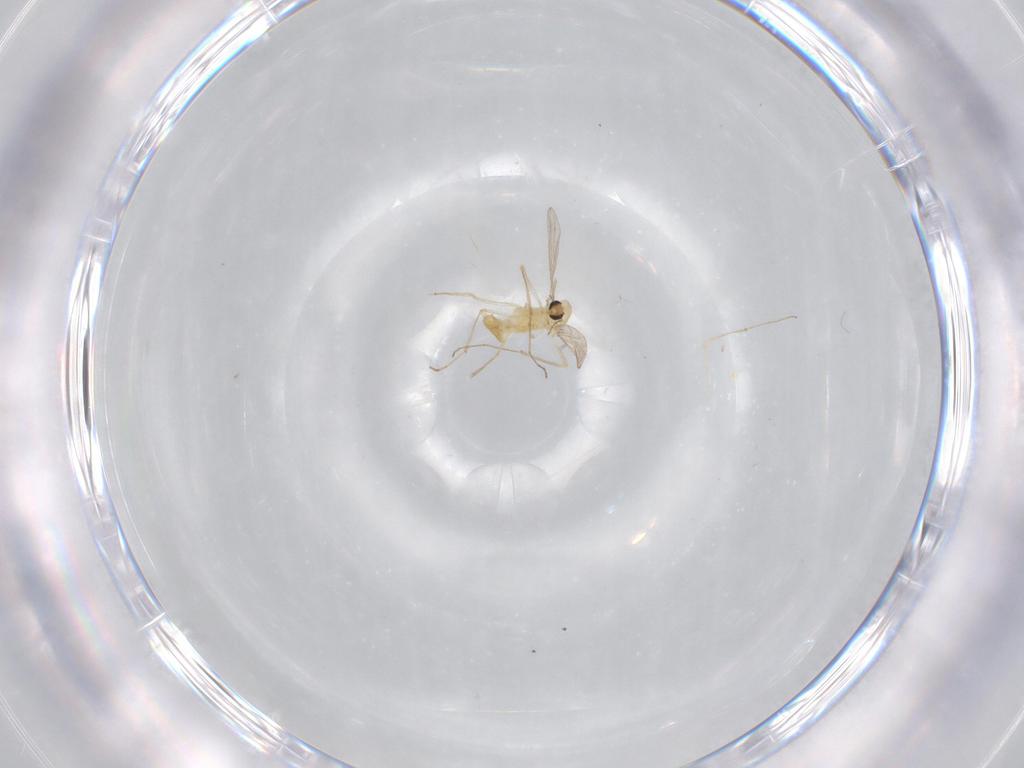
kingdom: Animalia
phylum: Arthropoda
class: Insecta
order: Diptera
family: Chironomidae
